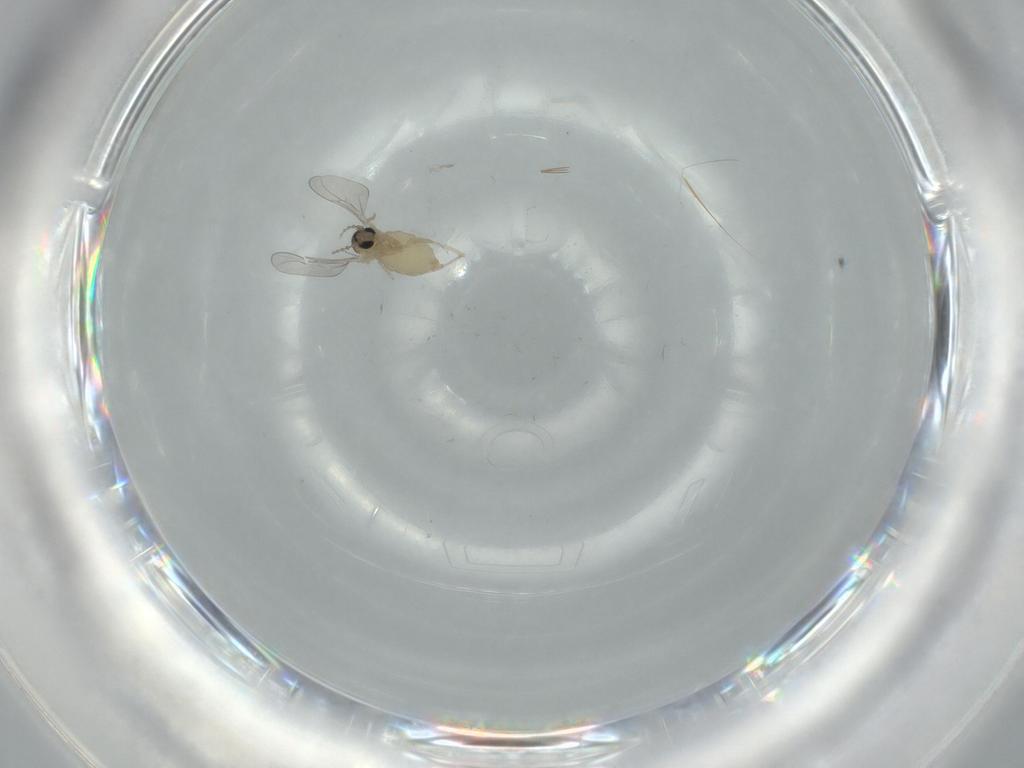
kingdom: Animalia
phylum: Arthropoda
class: Insecta
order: Diptera
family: Cecidomyiidae
